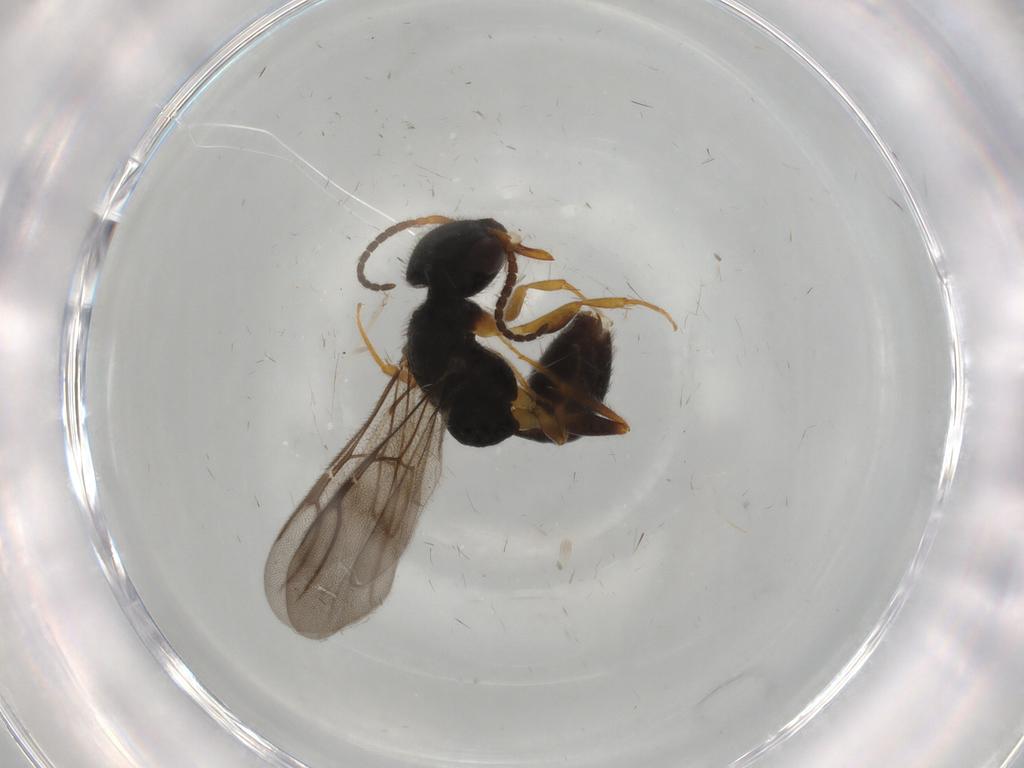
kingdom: Animalia
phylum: Arthropoda
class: Insecta
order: Hymenoptera
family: Bethylidae
